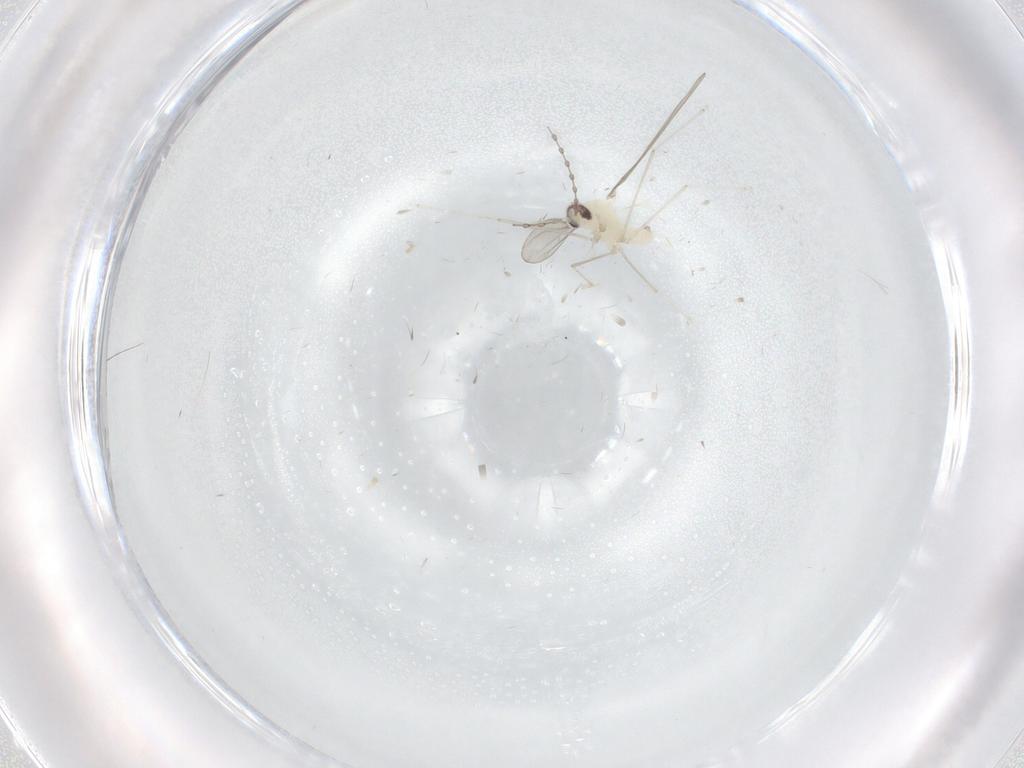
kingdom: Animalia
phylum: Arthropoda
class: Insecta
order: Diptera
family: Cecidomyiidae
